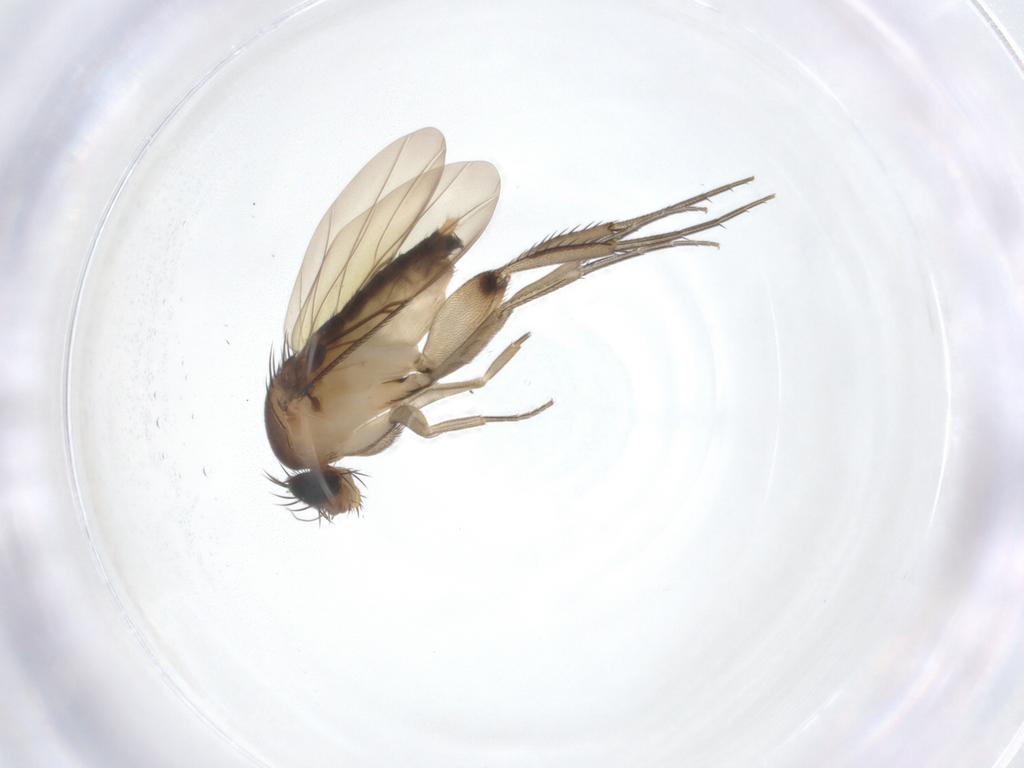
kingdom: Animalia
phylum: Arthropoda
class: Insecta
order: Diptera
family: Phoridae
